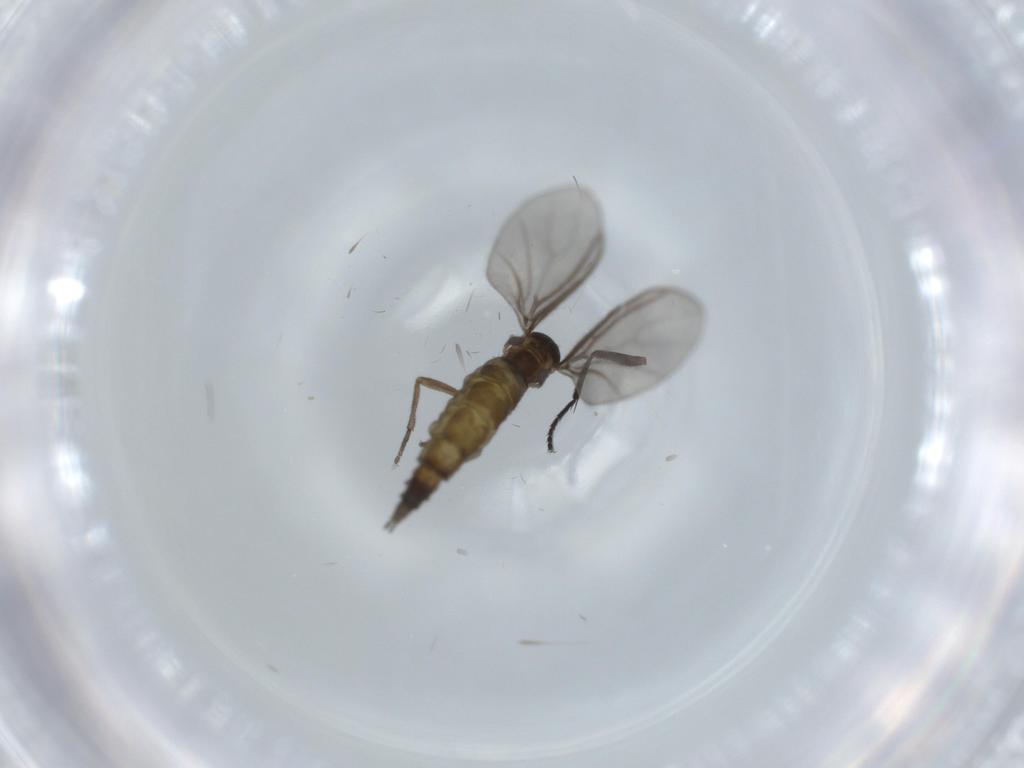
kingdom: Animalia
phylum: Arthropoda
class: Insecta
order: Diptera
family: Sciaridae
